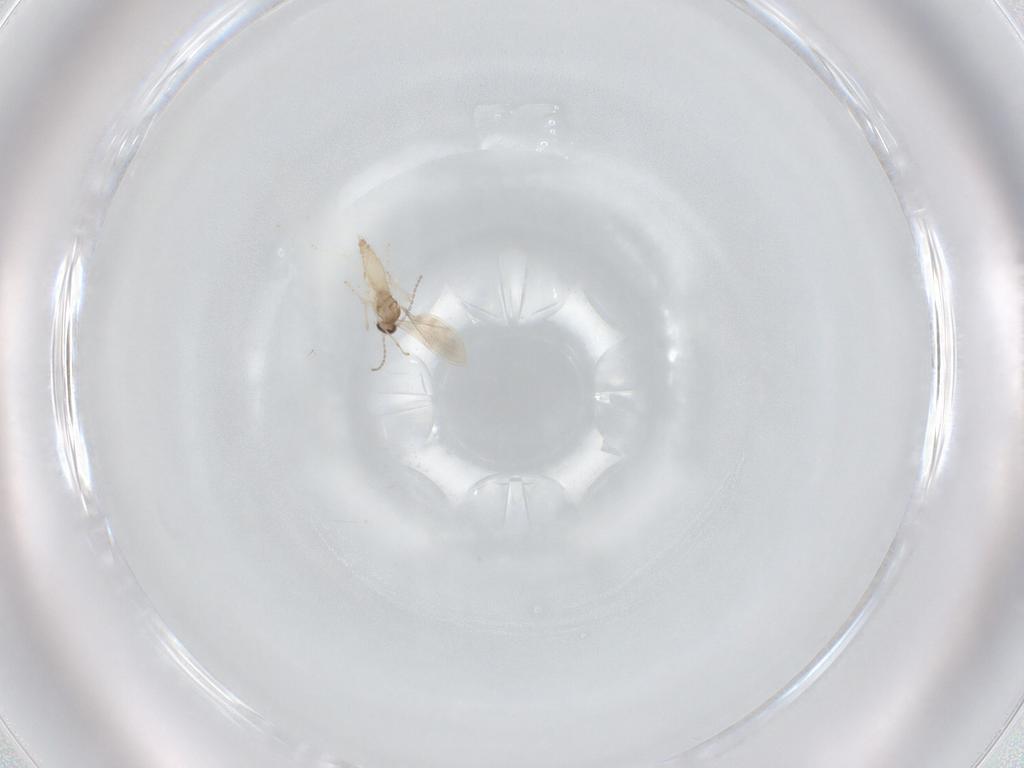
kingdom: Animalia
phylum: Arthropoda
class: Insecta
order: Diptera
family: Cecidomyiidae
